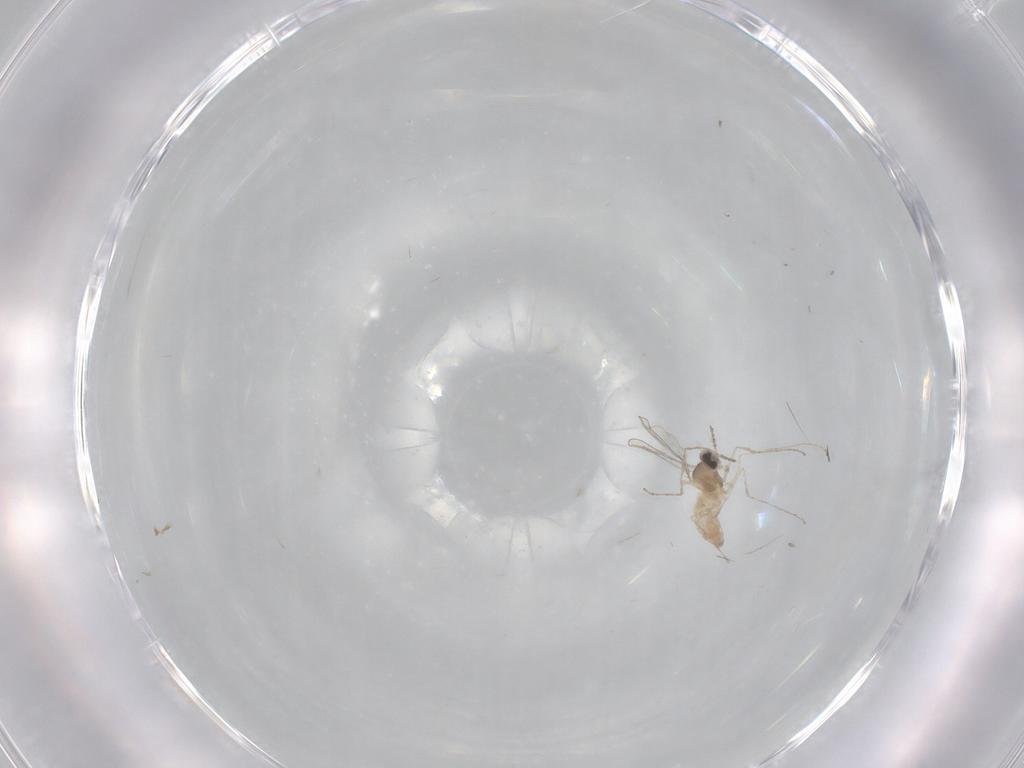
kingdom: Animalia
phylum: Arthropoda
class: Insecta
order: Diptera
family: Cecidomyiidae
